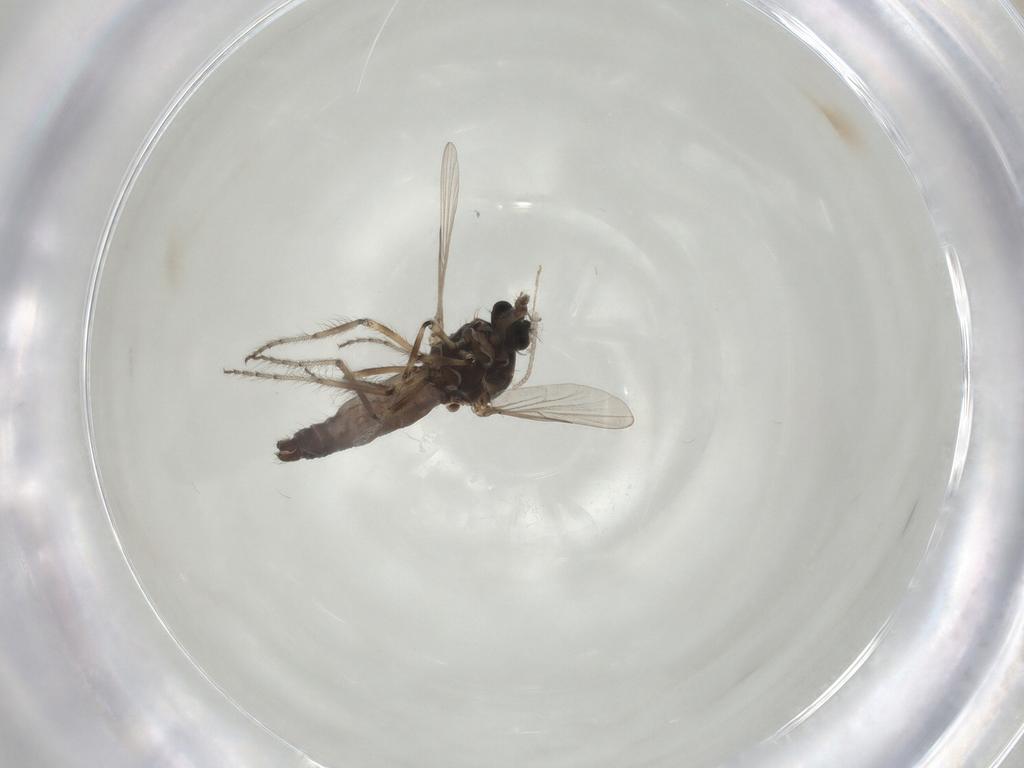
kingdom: Animalia
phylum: Arthropoda
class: Insecta
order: Diptera
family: Ceratopogonidae
